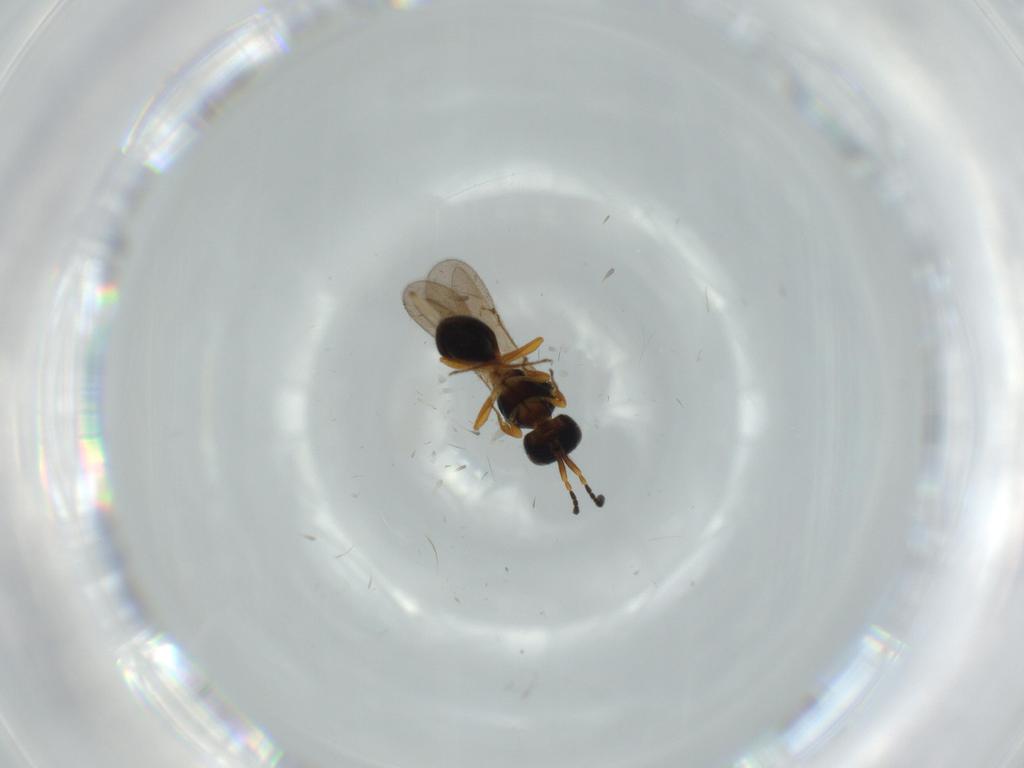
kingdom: Animalia
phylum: Arthropoda
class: Insecta
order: Hymenoptera
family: Scelionidae
